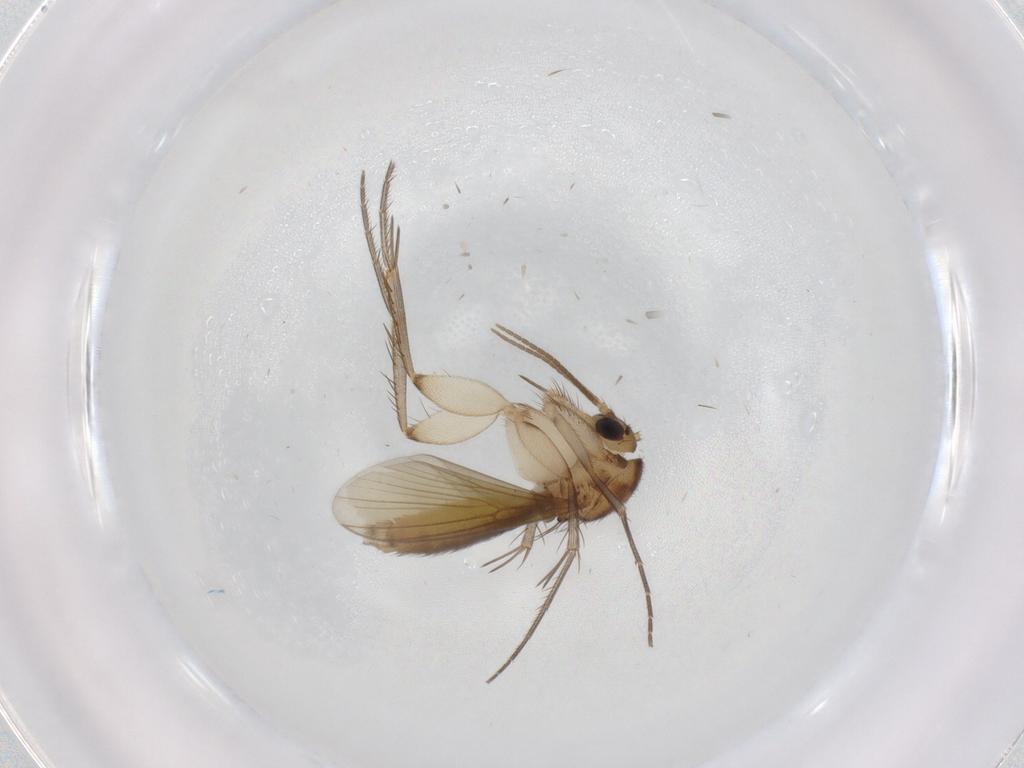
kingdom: Animalia
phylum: Arthropoda
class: Insecta
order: Diptera
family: Mycetophilidae
